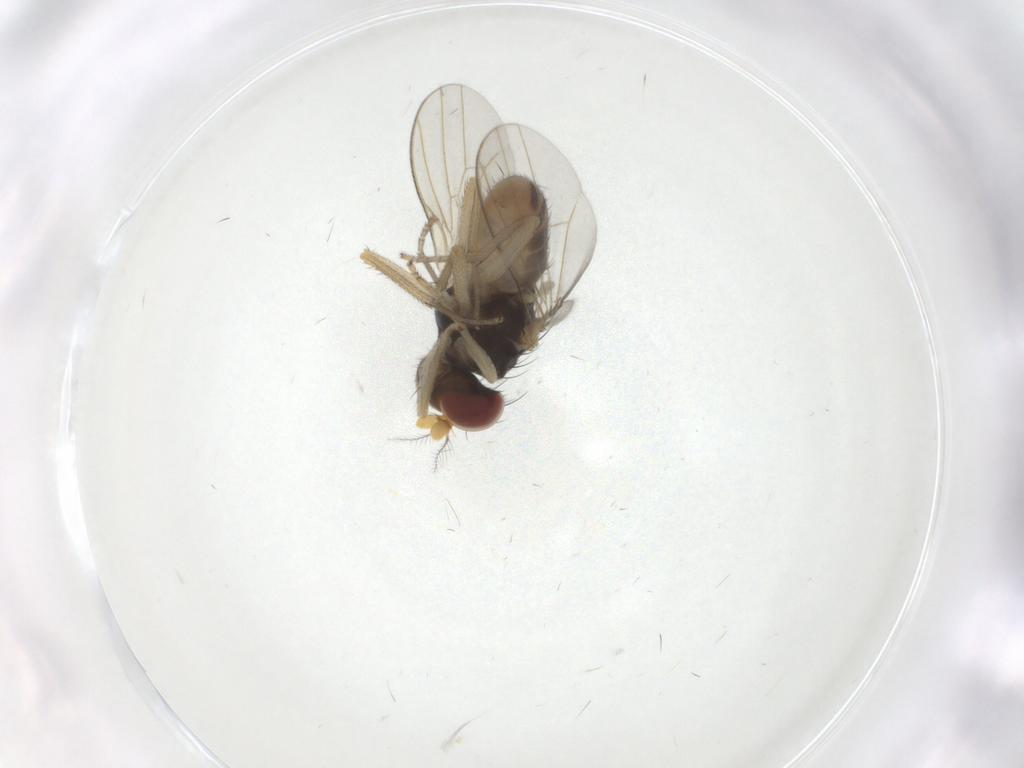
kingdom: Animalia
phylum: Arthropoda
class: Insecta
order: Diptera
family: Lauxaniidae
